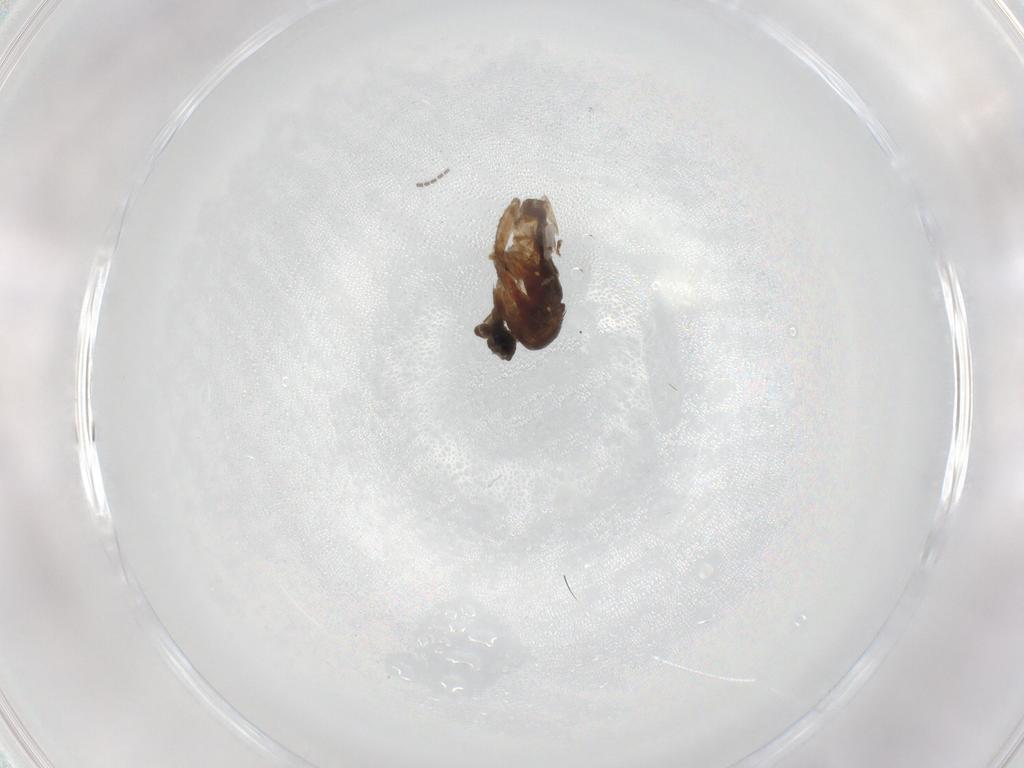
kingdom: Animalia
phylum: Arthropoda
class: Insecta
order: Diptera
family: Cecidomyiidae
